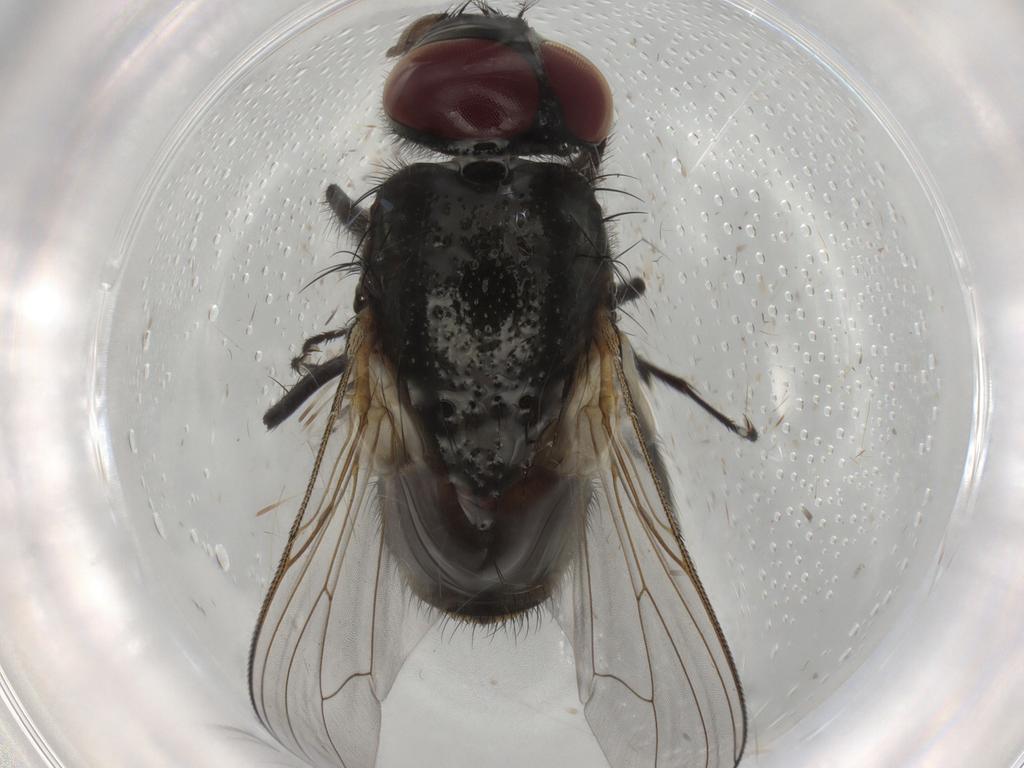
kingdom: Animalia
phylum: Arthropoda
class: Insecta
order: Diptera
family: Muscidae
